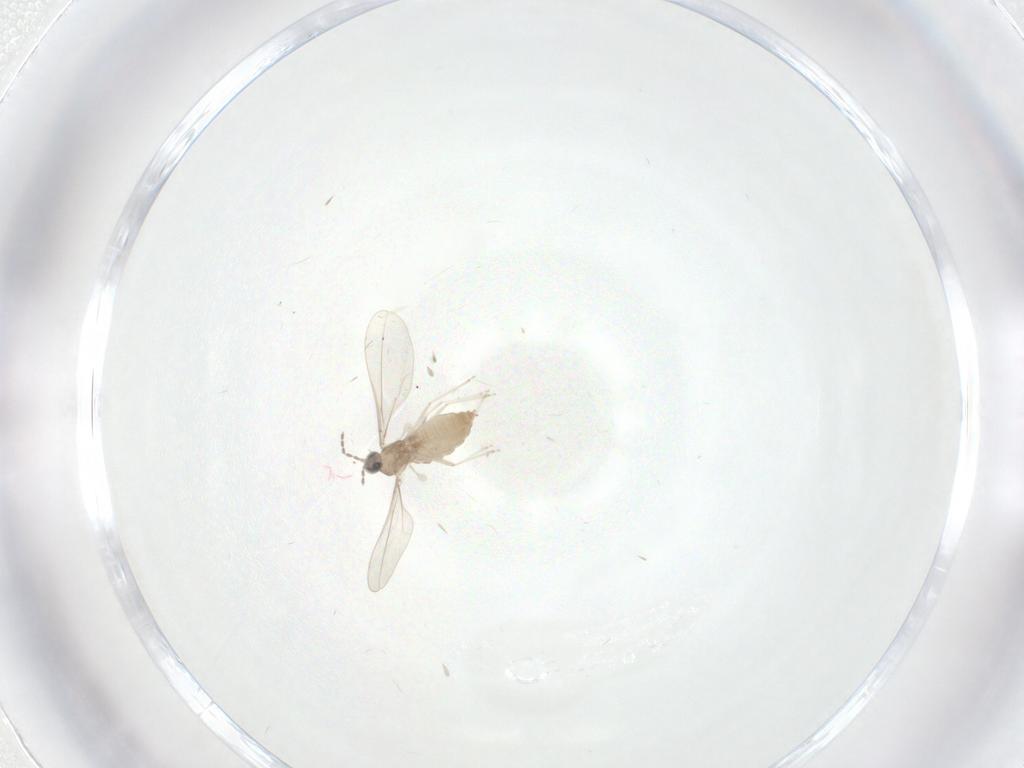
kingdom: Animalia
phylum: Arthropoda
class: Insecta
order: Diptera
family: Cecidomyiidae
